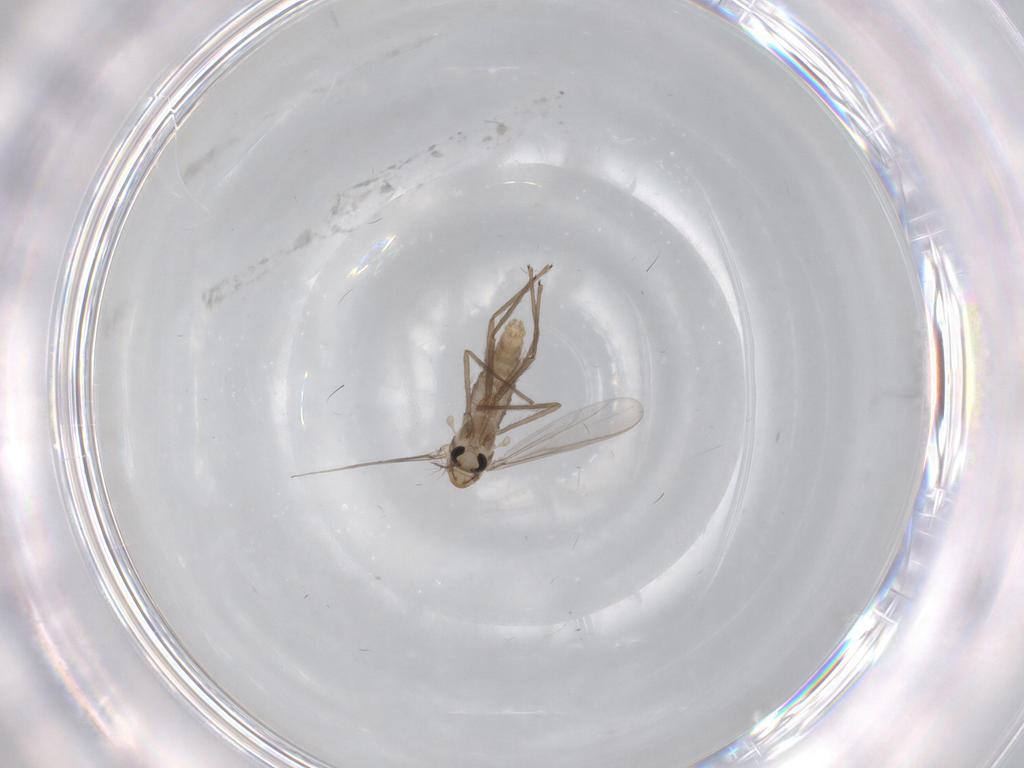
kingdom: Animalia
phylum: Arthropoda
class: Insecta
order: Diptera
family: Chironomidae
